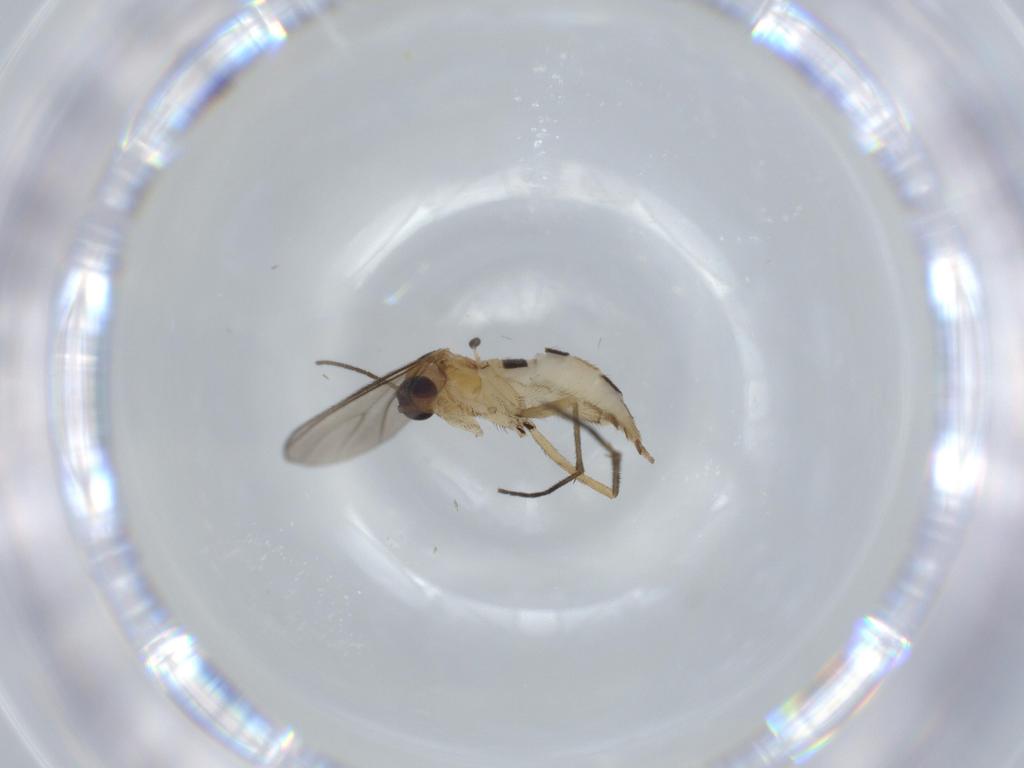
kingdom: Animalia
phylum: Arthropoda
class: Insecta
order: Diptera
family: Sciaridae
